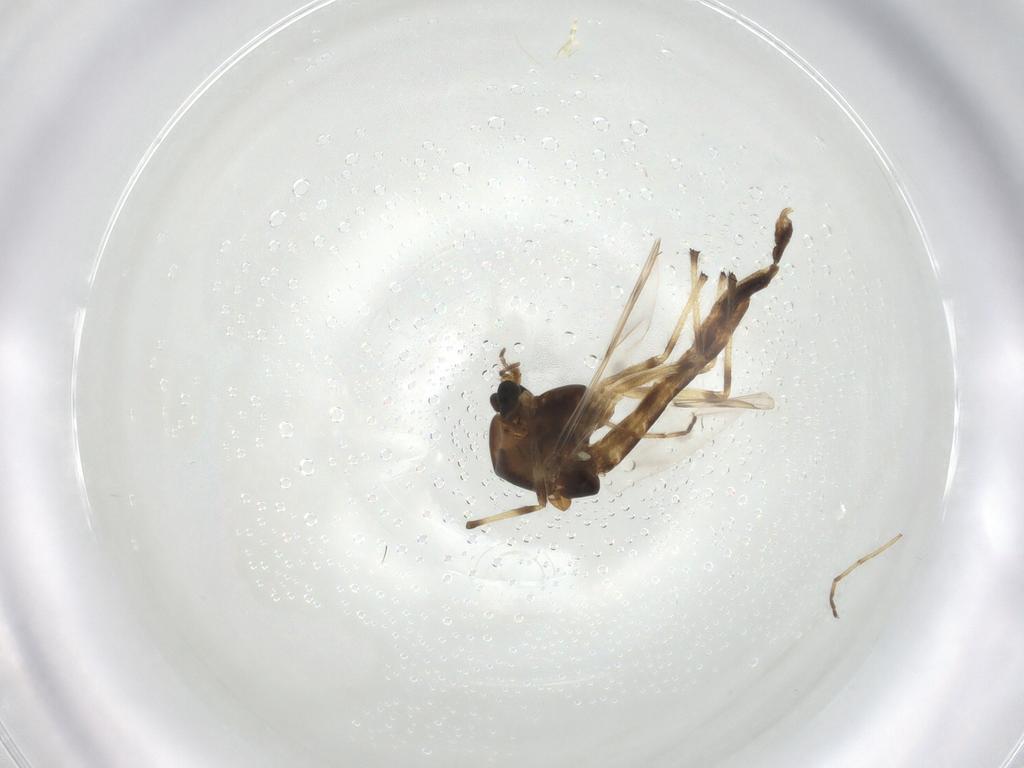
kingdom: Animalia
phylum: Arthropoda
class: Insecta
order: Diptera
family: Chironomidae
